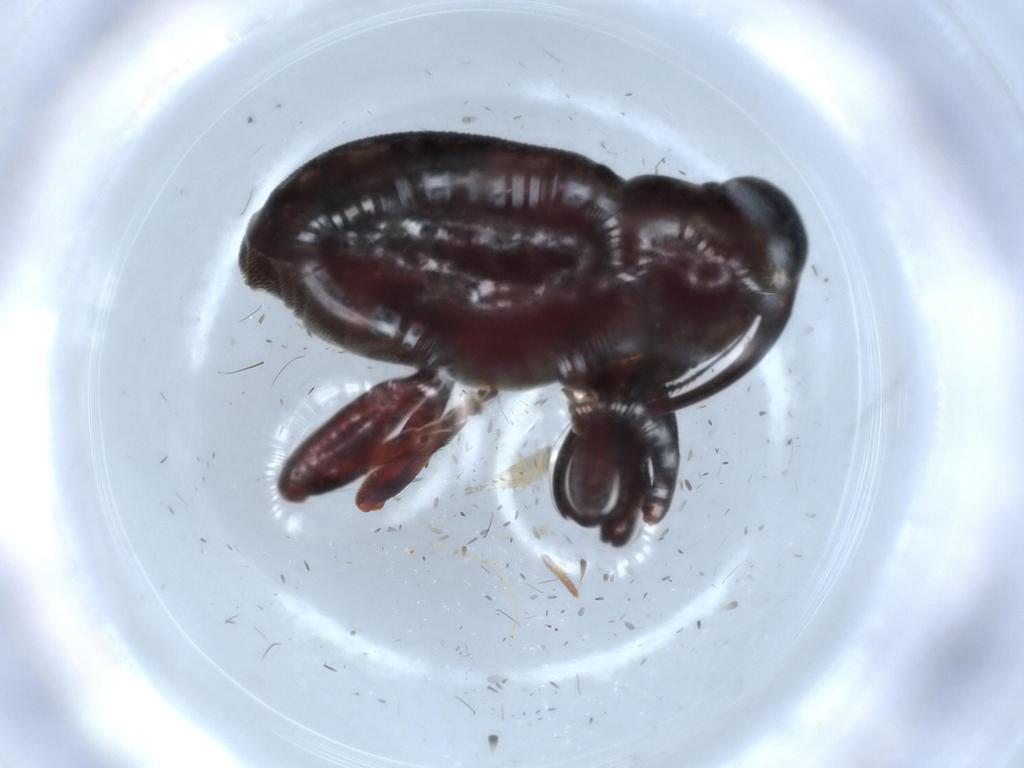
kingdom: Animalia
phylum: Arthropoda
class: Insecta
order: Coleoptera
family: Curculionidae
